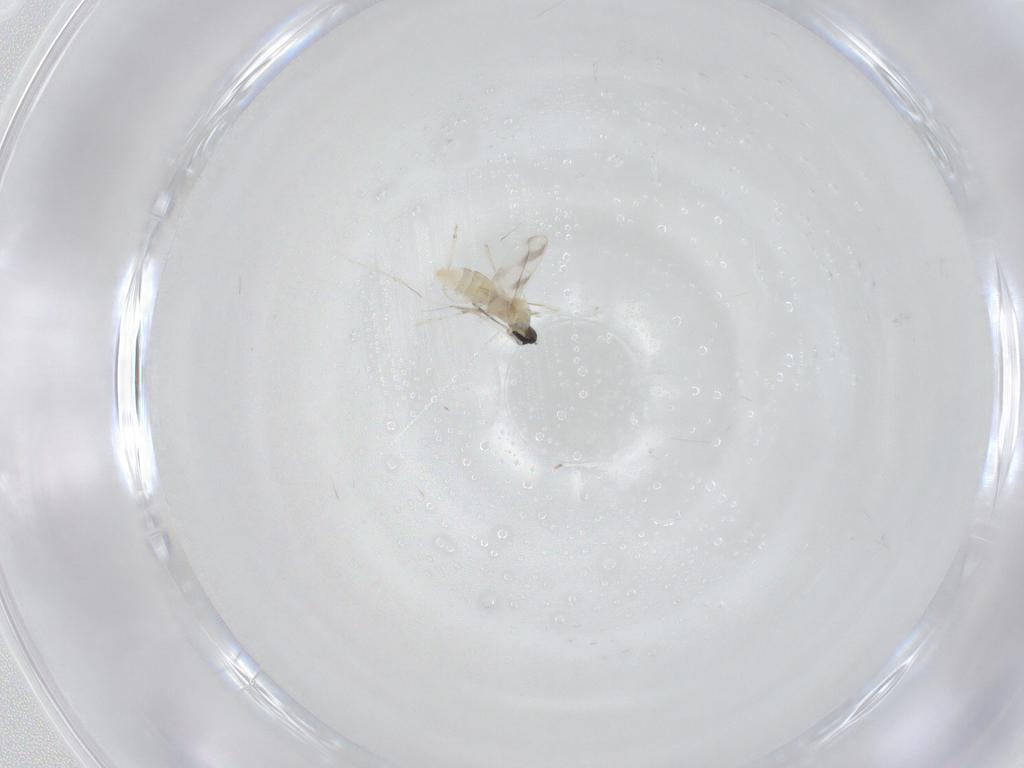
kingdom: Animalia
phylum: Arthropoda
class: Insecta
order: Diptera
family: Cecidomyiidae
